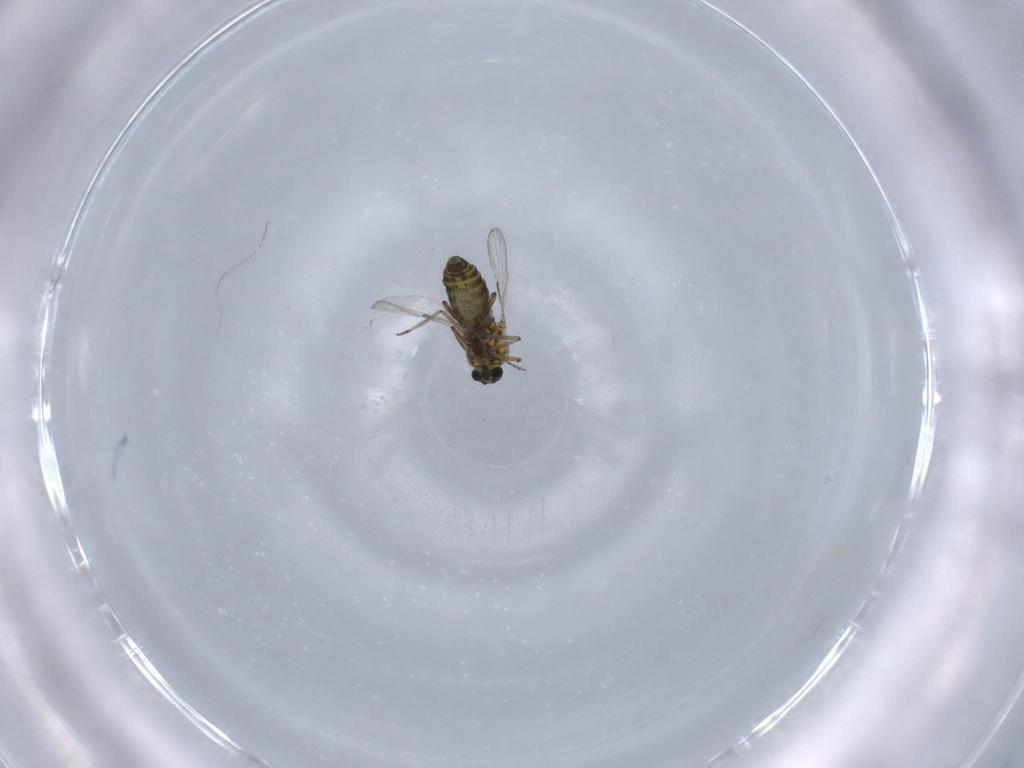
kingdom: Animalia
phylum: Arthropoda
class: Insecta
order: Diptera
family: Ceratopogonidae
